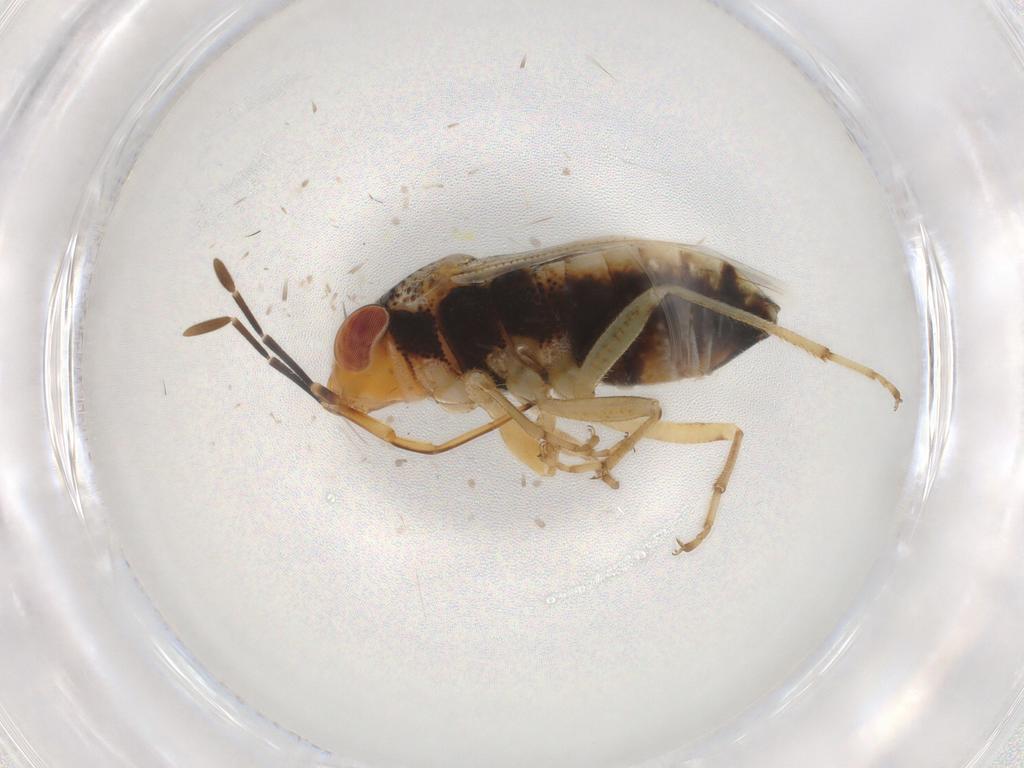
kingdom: Animalia
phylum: Arthropoda
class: Insecta
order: Hemiptera
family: Geocoridae
